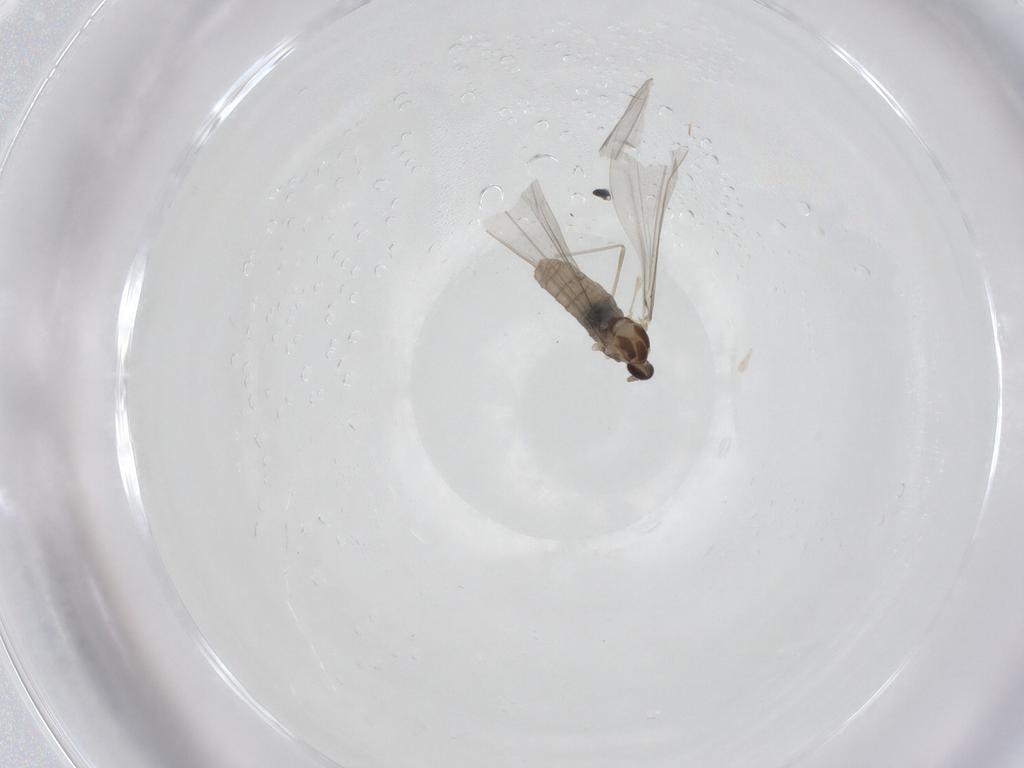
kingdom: Animalia
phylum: Arthropoda
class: Insecta
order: Diptera
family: Cecidomyiidae
